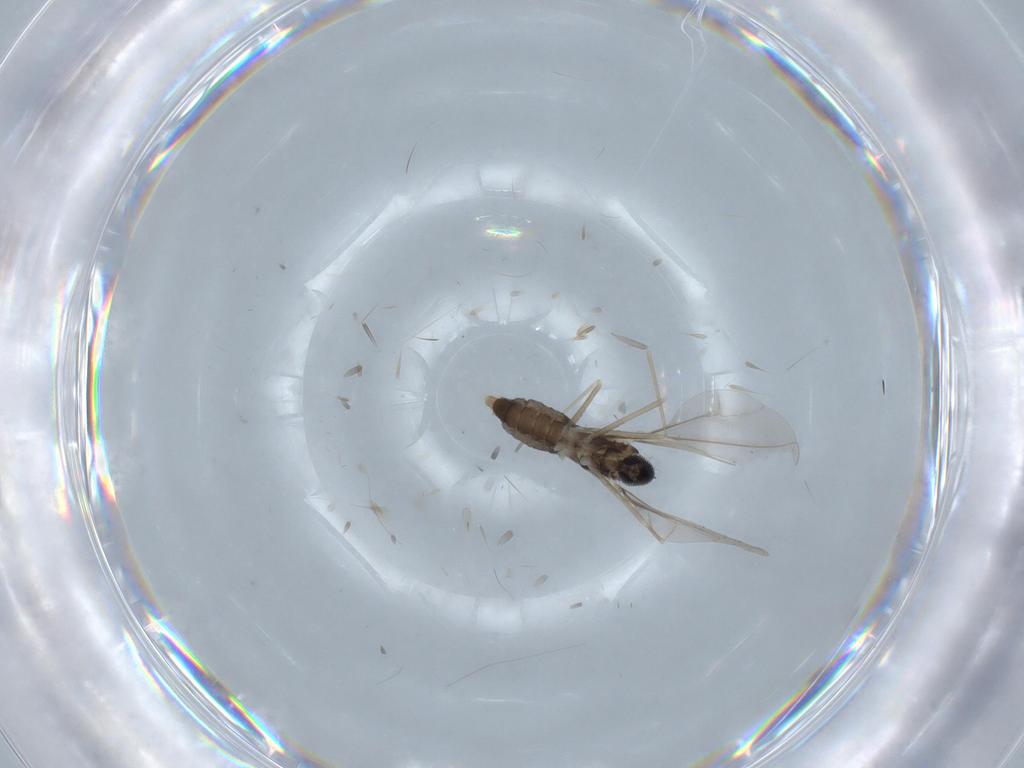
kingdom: Animalia
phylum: Arthropoda
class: Insecta
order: Diptera
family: Cecidomyiidae
